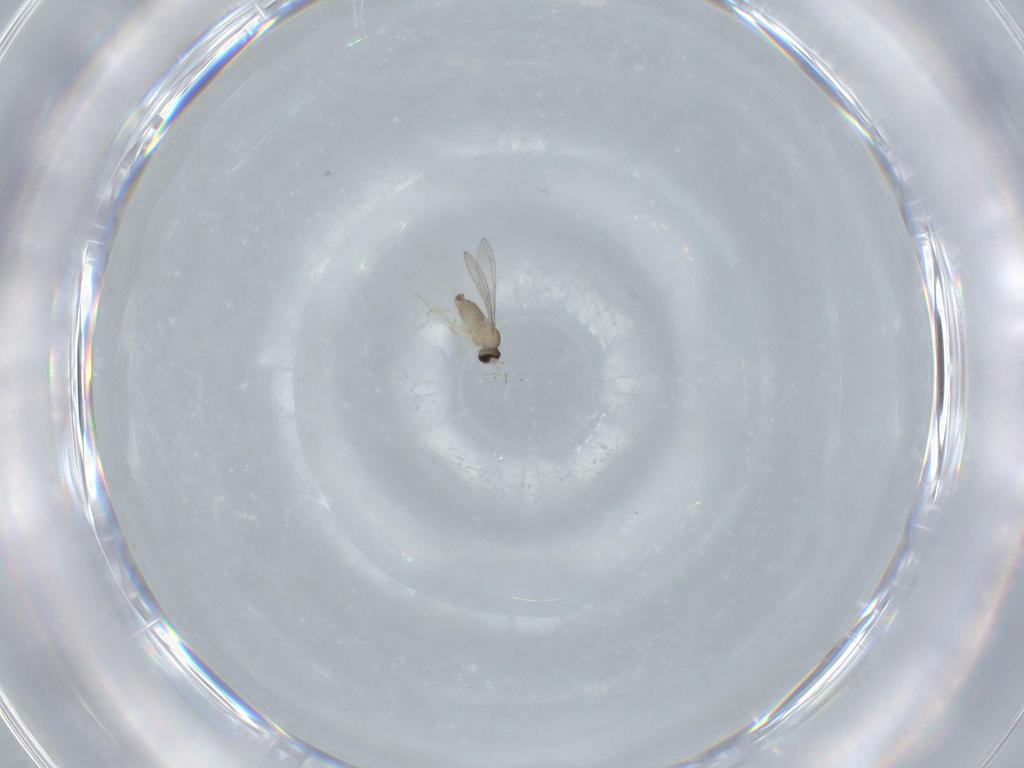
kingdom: Animalia
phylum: Arthropoda
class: Insecta
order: Diptera
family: Cecidomyiidae
